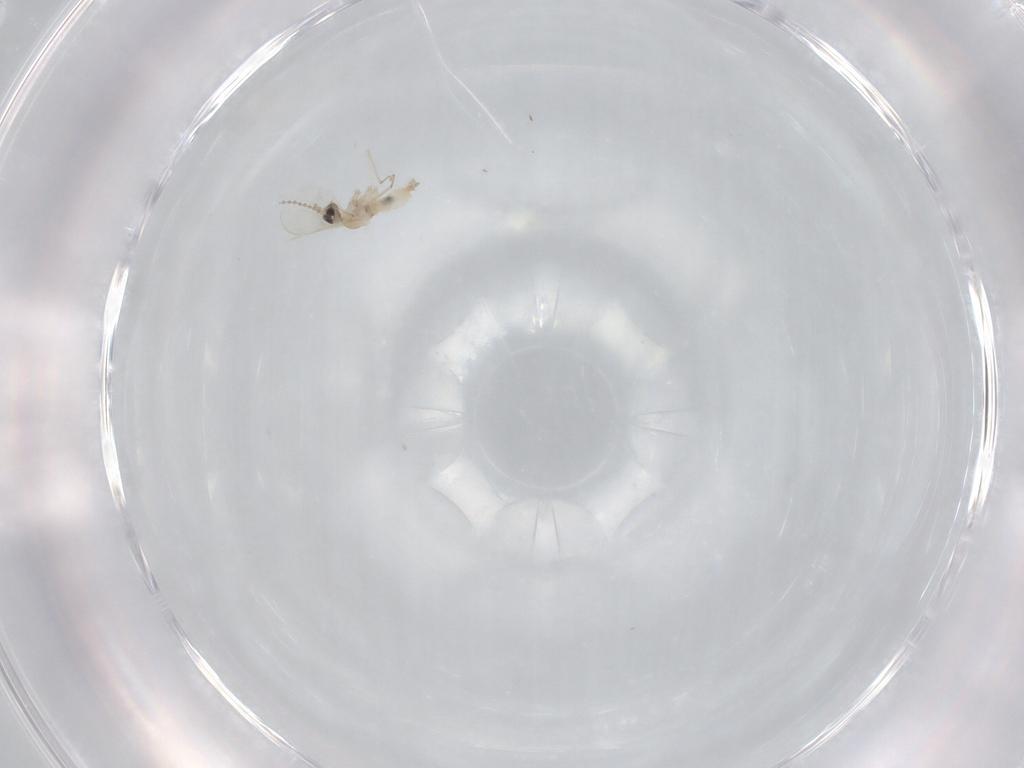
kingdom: Animalia
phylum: Arthropoda
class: Insecta
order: Diptera
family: Cecidomyiidae
